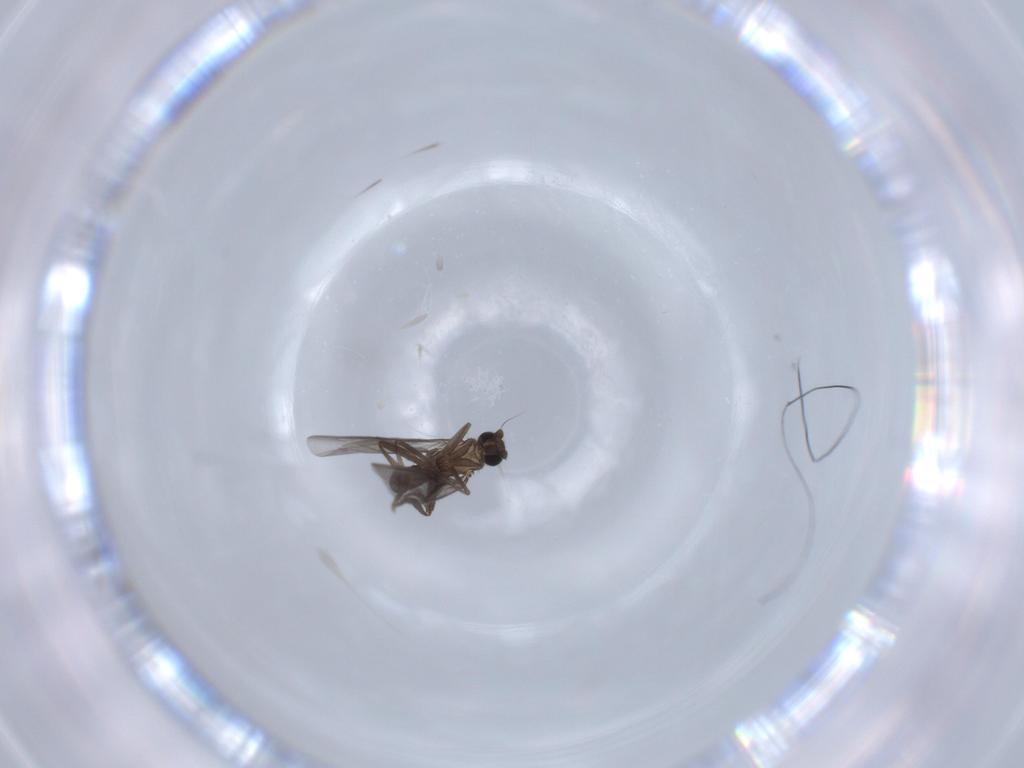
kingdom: Animalia
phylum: Arthropoda
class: Insecta
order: Diptera
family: Phoridae
